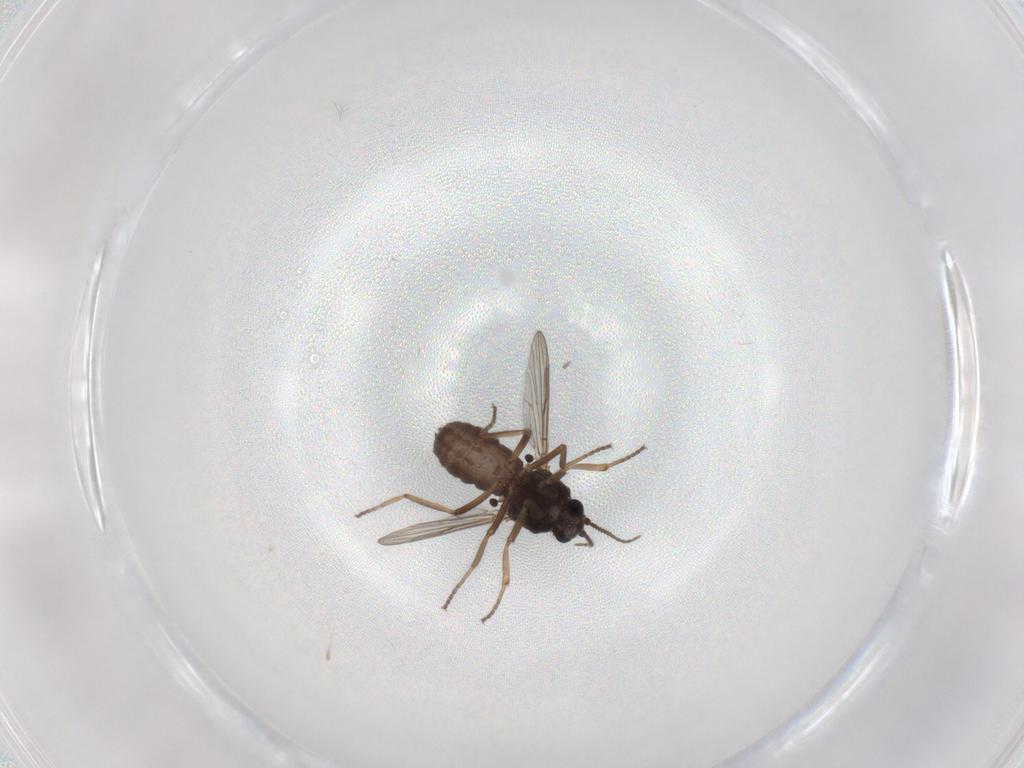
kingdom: Animalia
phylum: Arthropoda
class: Insecta
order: Diptera
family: Ceratopogonidae
